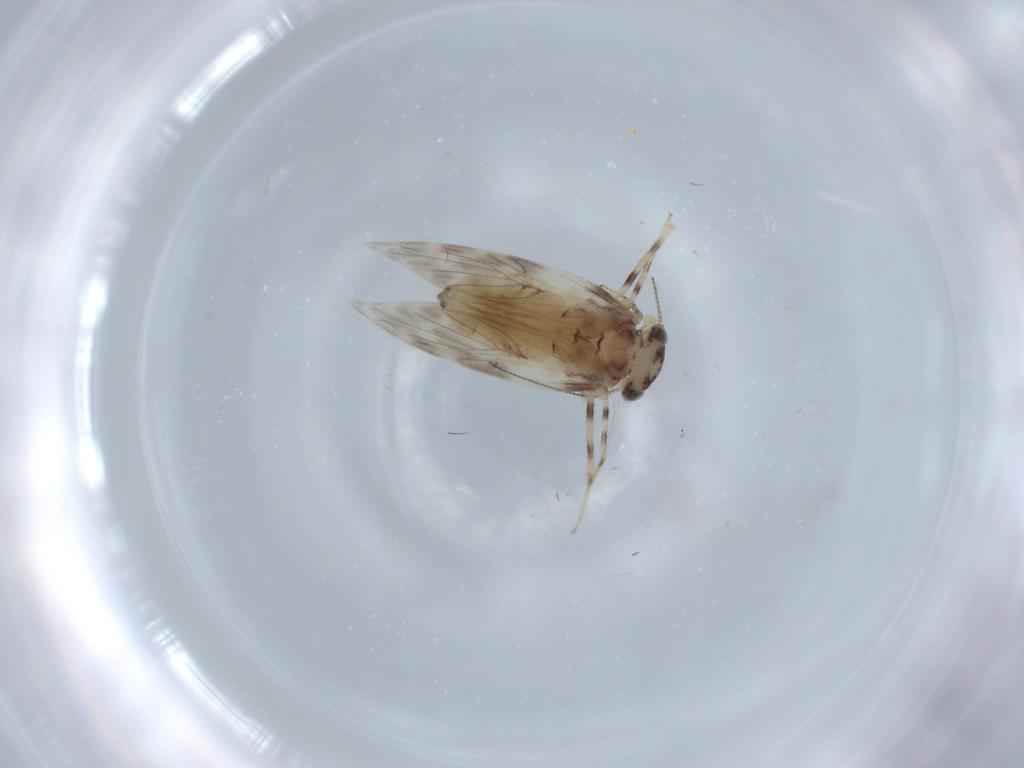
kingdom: Animalia
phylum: Arthropoda
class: Insecta
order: Psocodea
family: Lepidopsocidae
